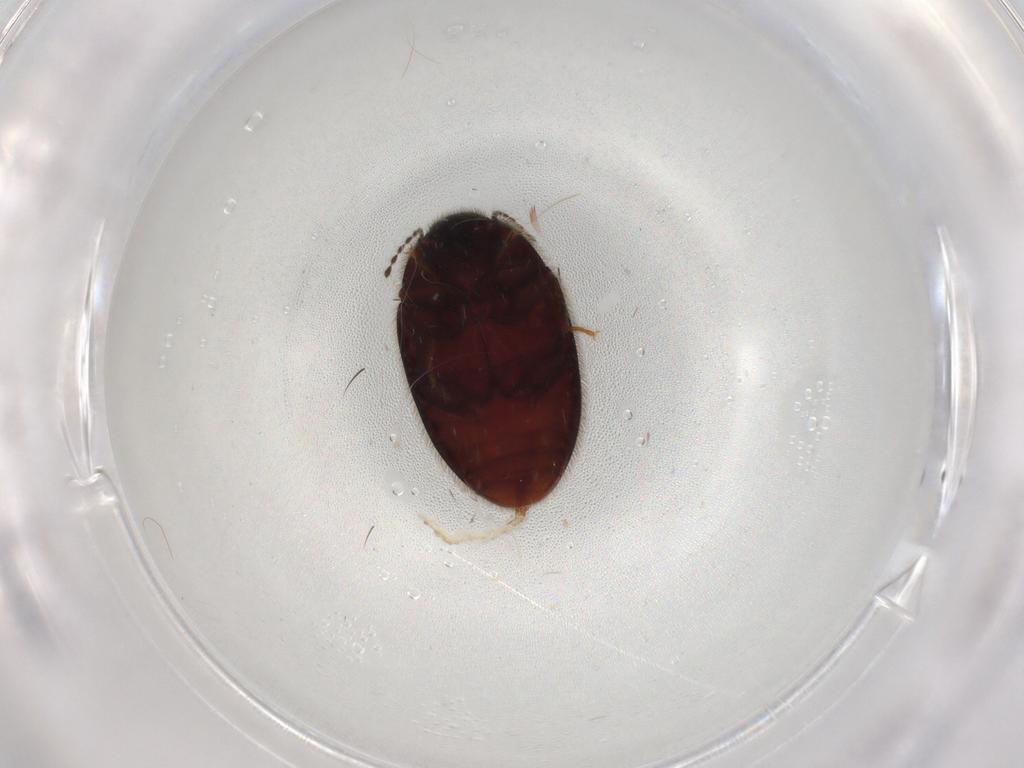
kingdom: Animalia
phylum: Arthropoda
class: Insecta
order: Coleoptera
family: Limnichidae
